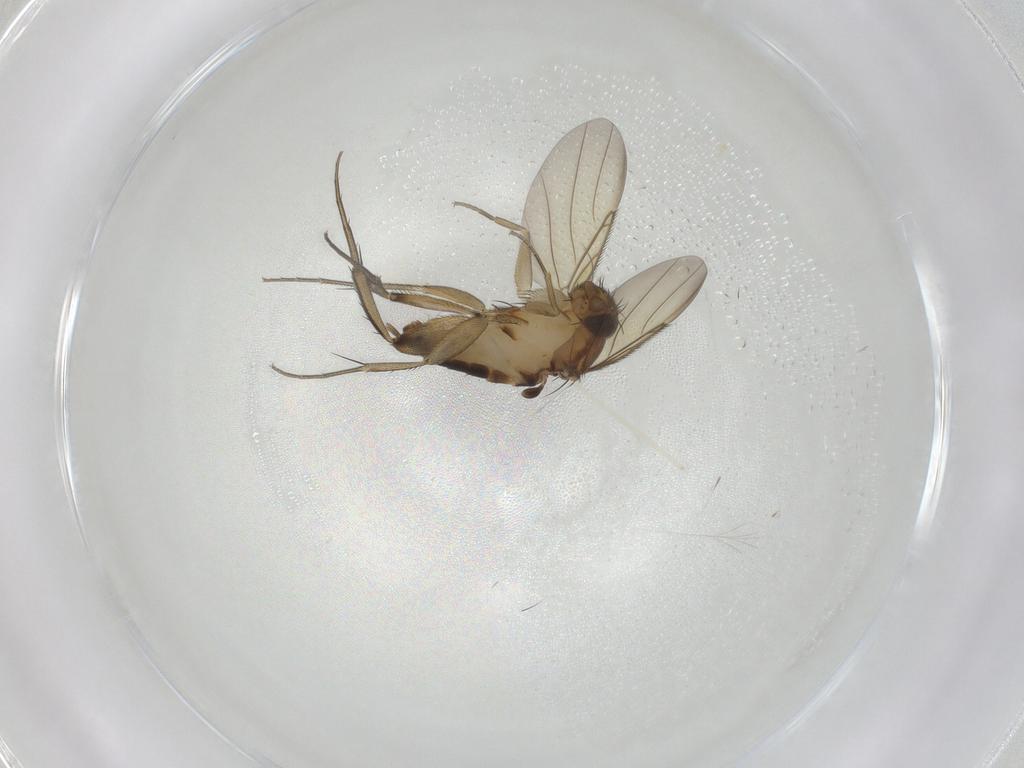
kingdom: Animalia
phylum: Arthropoda
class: Insecta
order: Diptera
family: Phoridae
